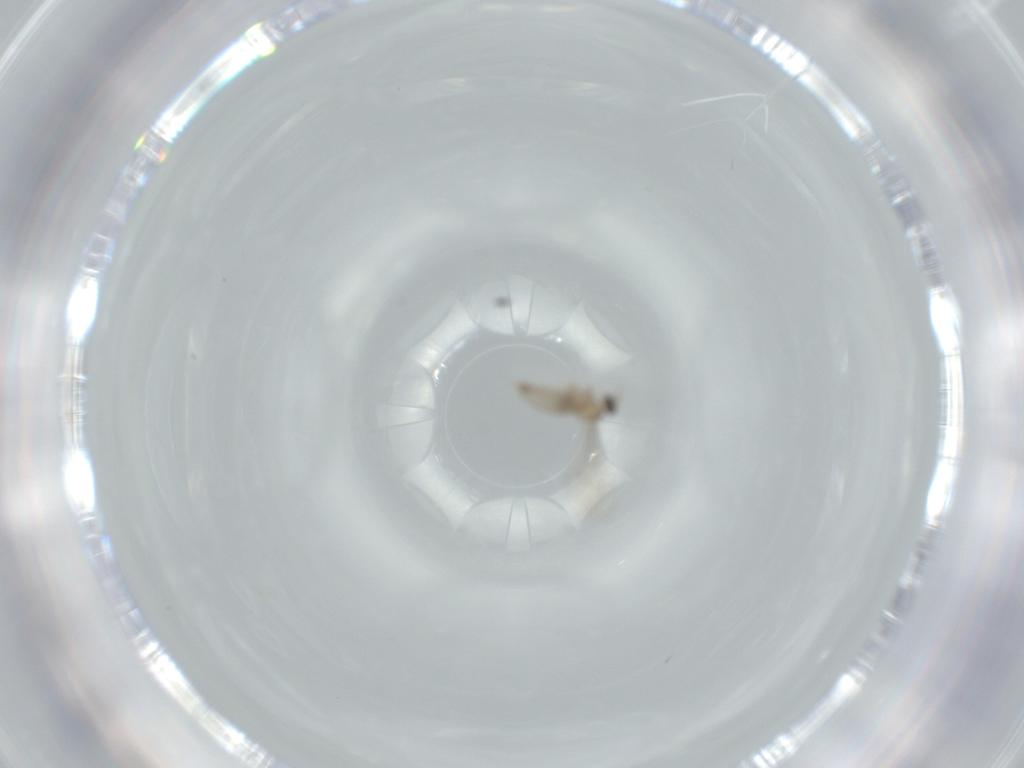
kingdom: Animalia
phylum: Arthropoda
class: Insecta
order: Diptera
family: Cecidomyiidae
